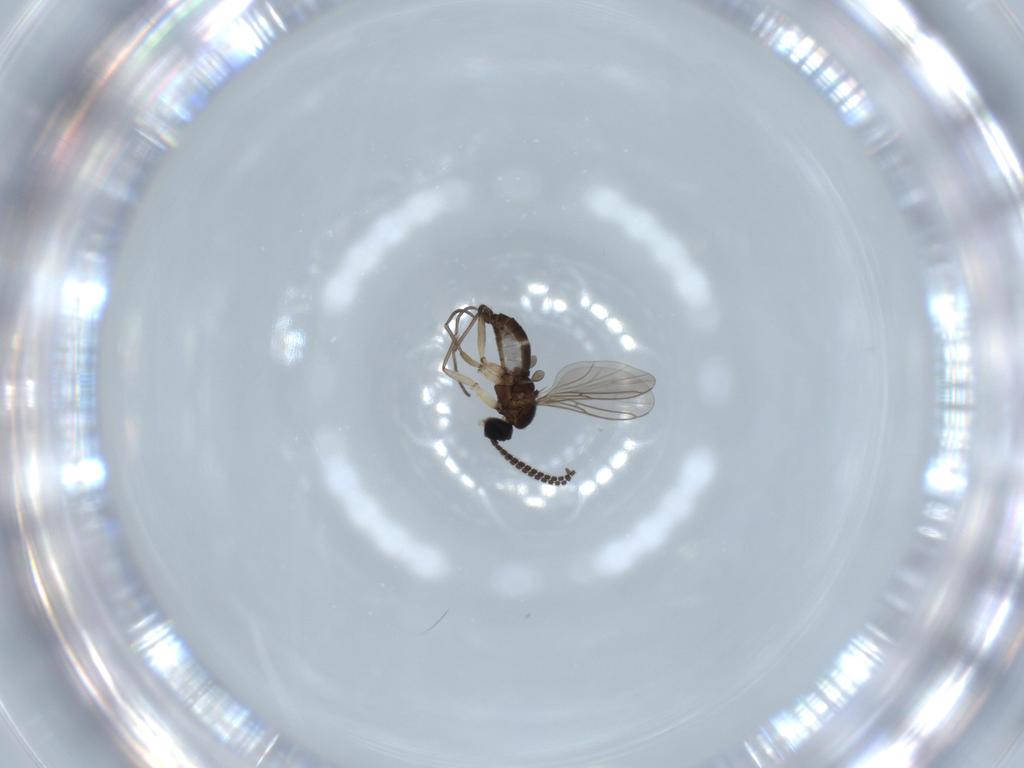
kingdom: Animalia
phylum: Arthropoda
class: Insecta
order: Diptera
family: Sciaridae
